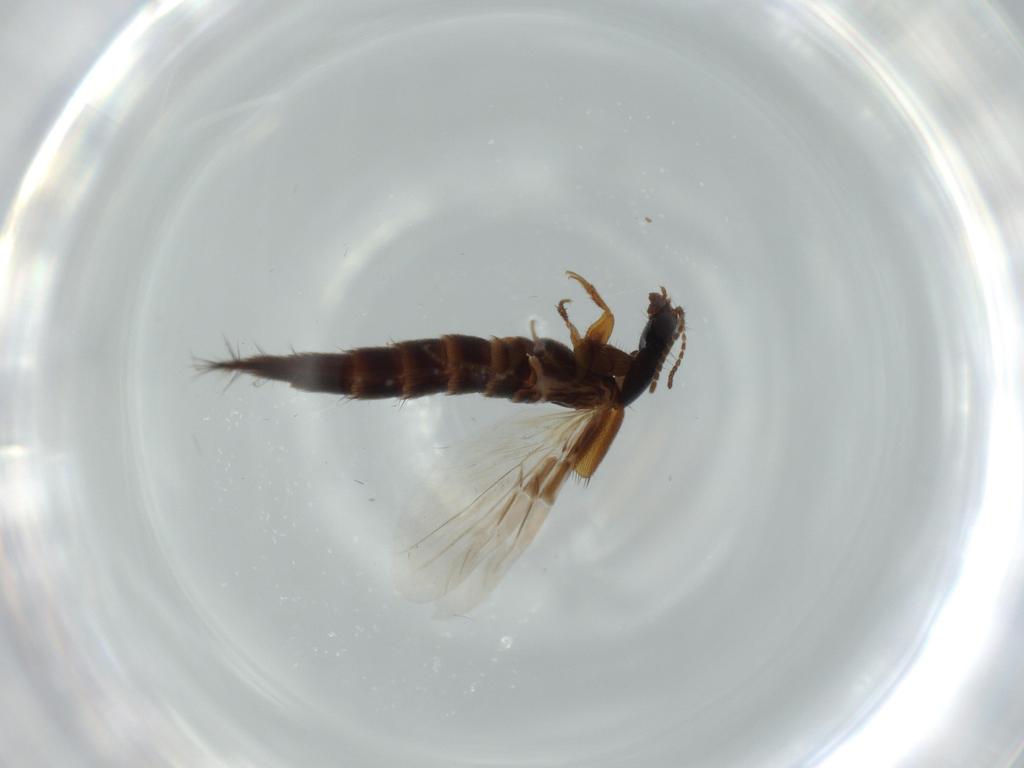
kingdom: Animalia
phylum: Arthropoda
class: Insecta
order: Coleoptera
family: Staphylinidae
